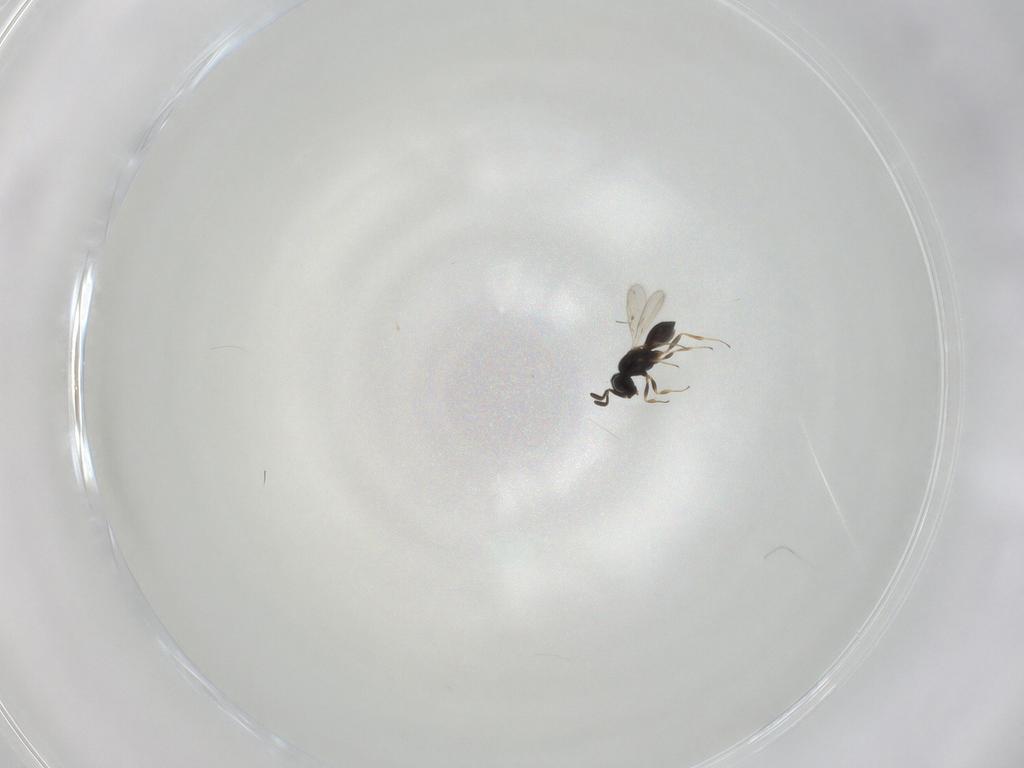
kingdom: Animalia
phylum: Arthropoda
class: Insecta
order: Hymenoptera
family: Scelionidae
